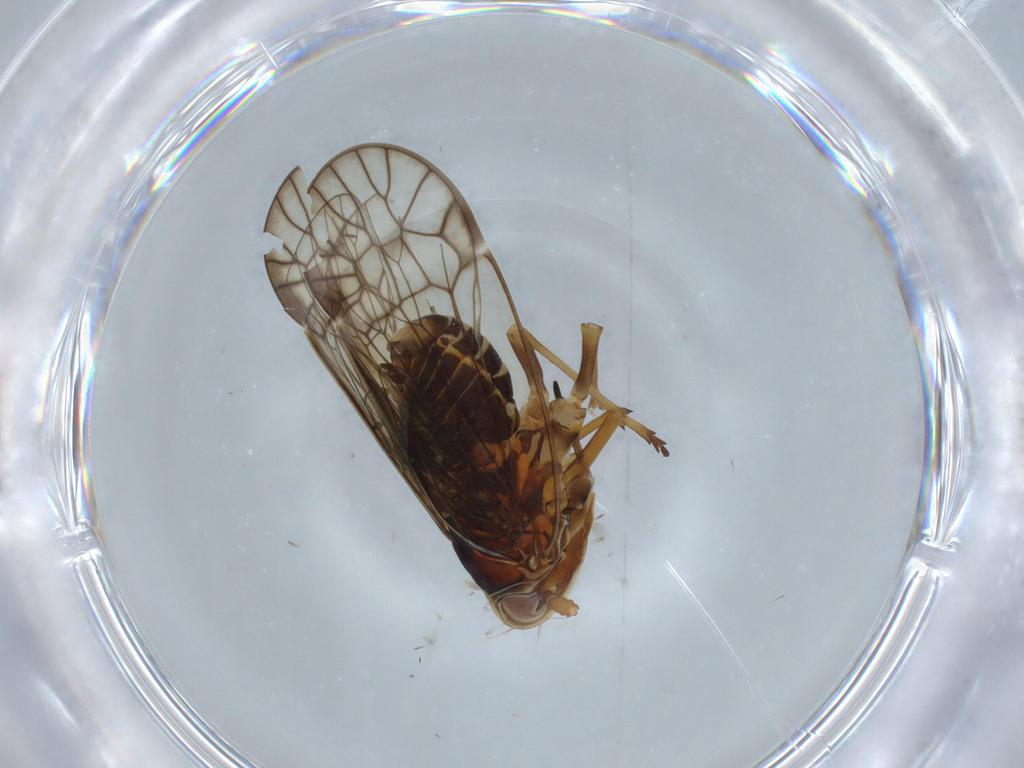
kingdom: Animalia
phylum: Arthropoda
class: Insecta
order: Hemiptera
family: Kinnaridae
